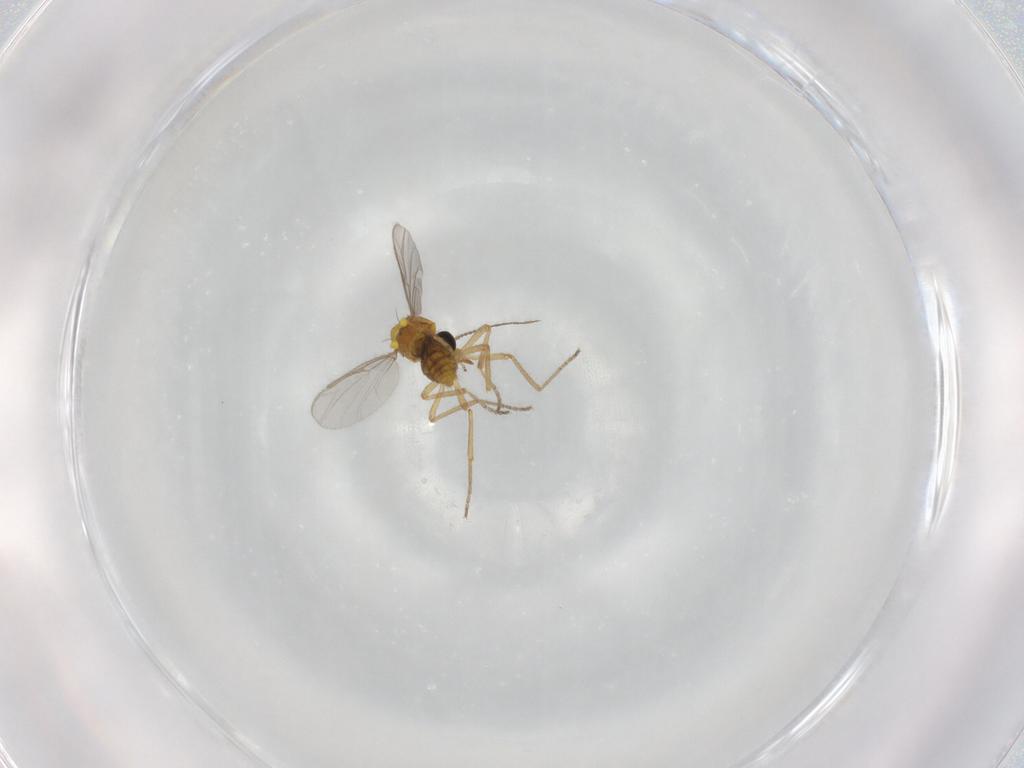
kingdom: Animalia
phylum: Arthropoda
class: Insecta
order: Diptera
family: Ceratopogonidae
